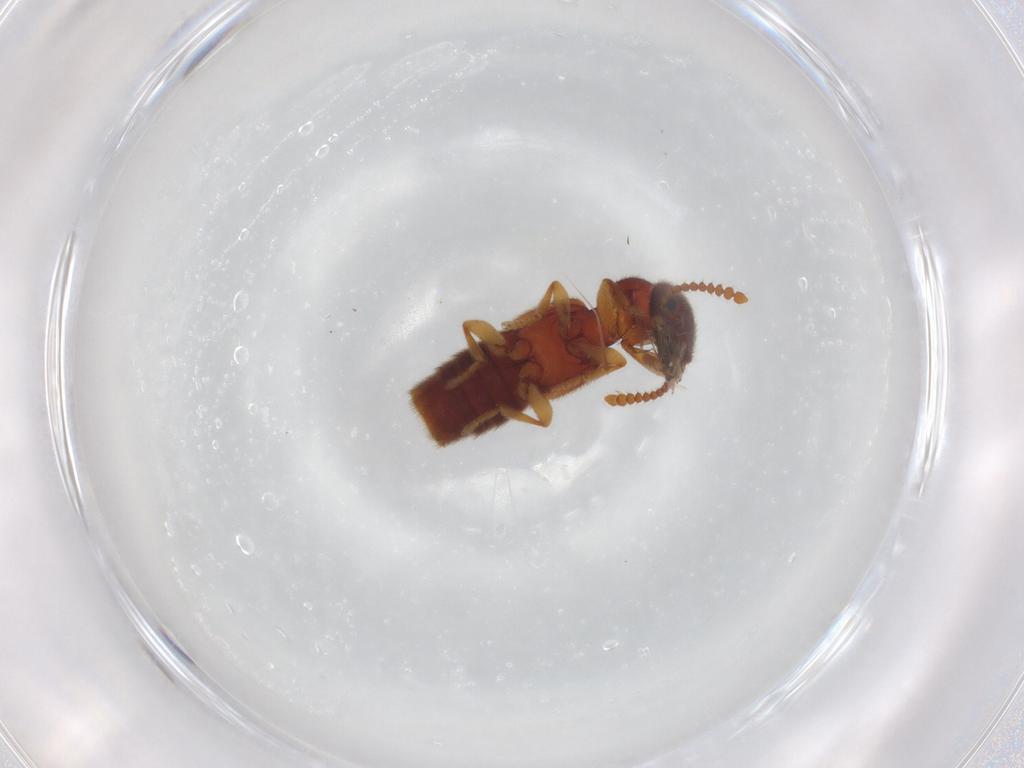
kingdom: Animalia
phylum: Arthropoda
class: Insecta
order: Coleoptera
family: Staphylinidae
